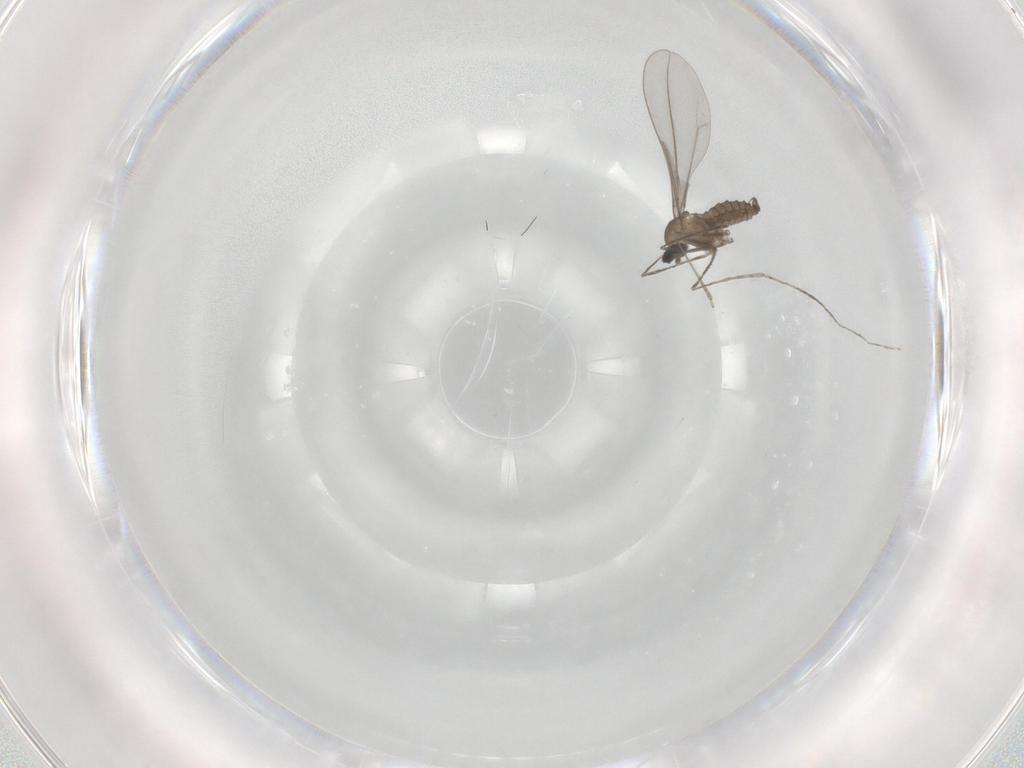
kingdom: Animalia
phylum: Arthropoda
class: Insecta
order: Diptera
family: Cecidomyiidae
